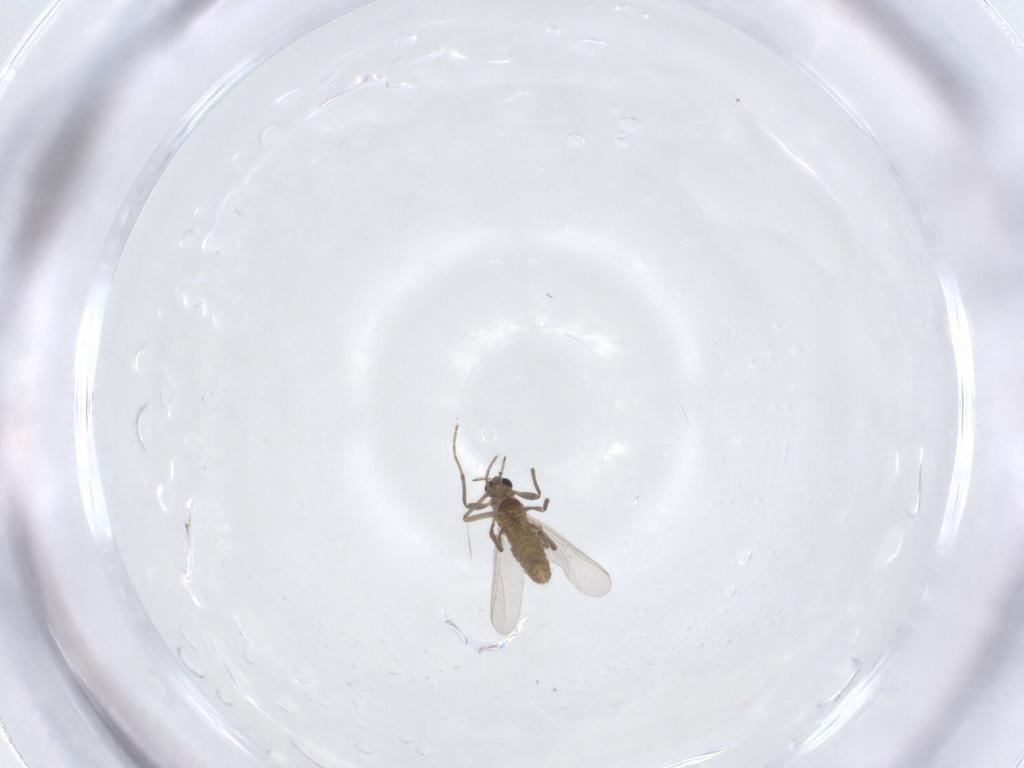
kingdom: Animalia
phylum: Arthropoda
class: Insecta
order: Diptera
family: Chironomidae
